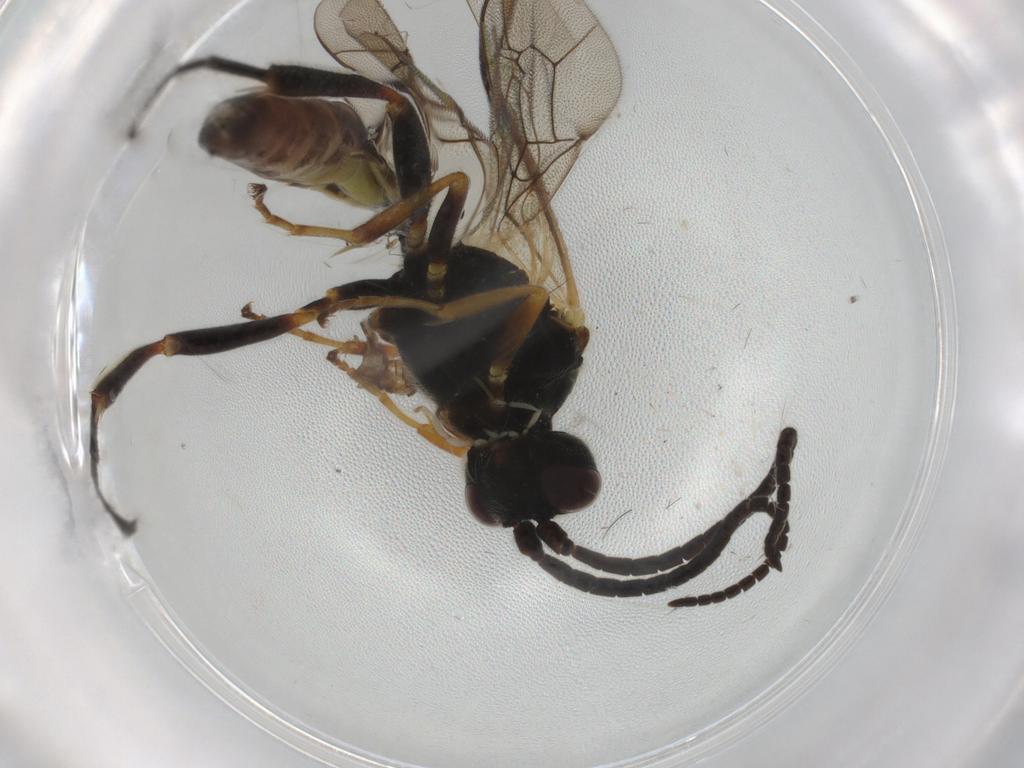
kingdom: Animalia
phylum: Arthropoda
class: Insecta
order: Hymenoptera
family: Ichneumonidae
